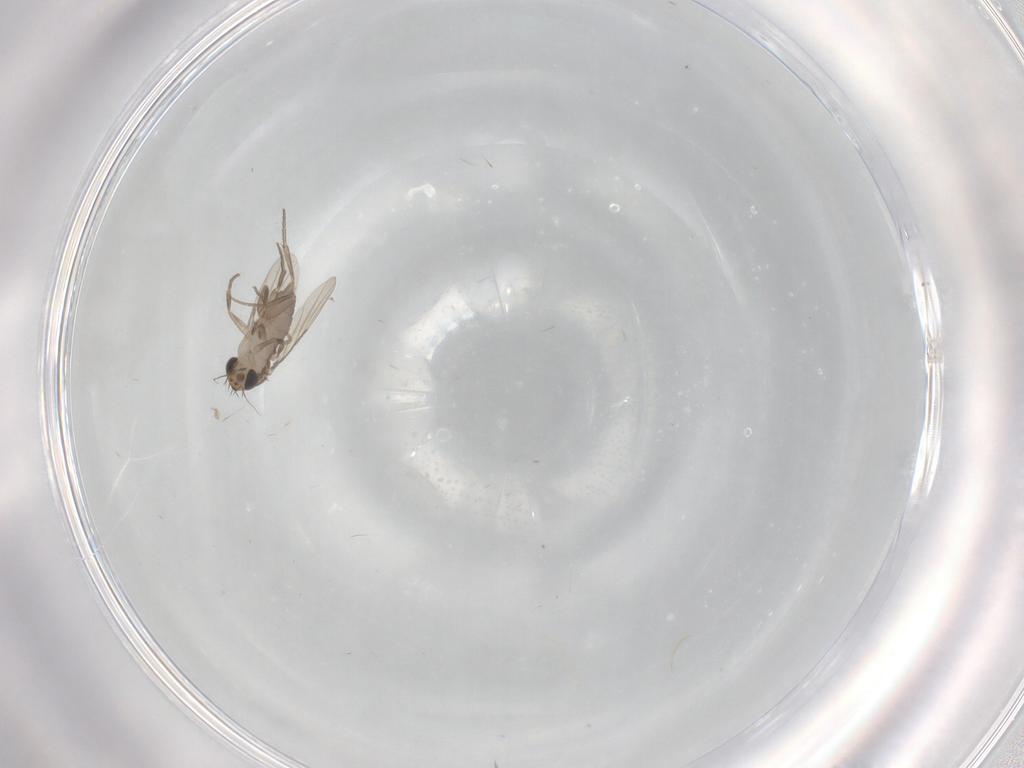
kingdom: Animalia
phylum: Arthropoda
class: Insecta
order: Diptera
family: Phoridae
